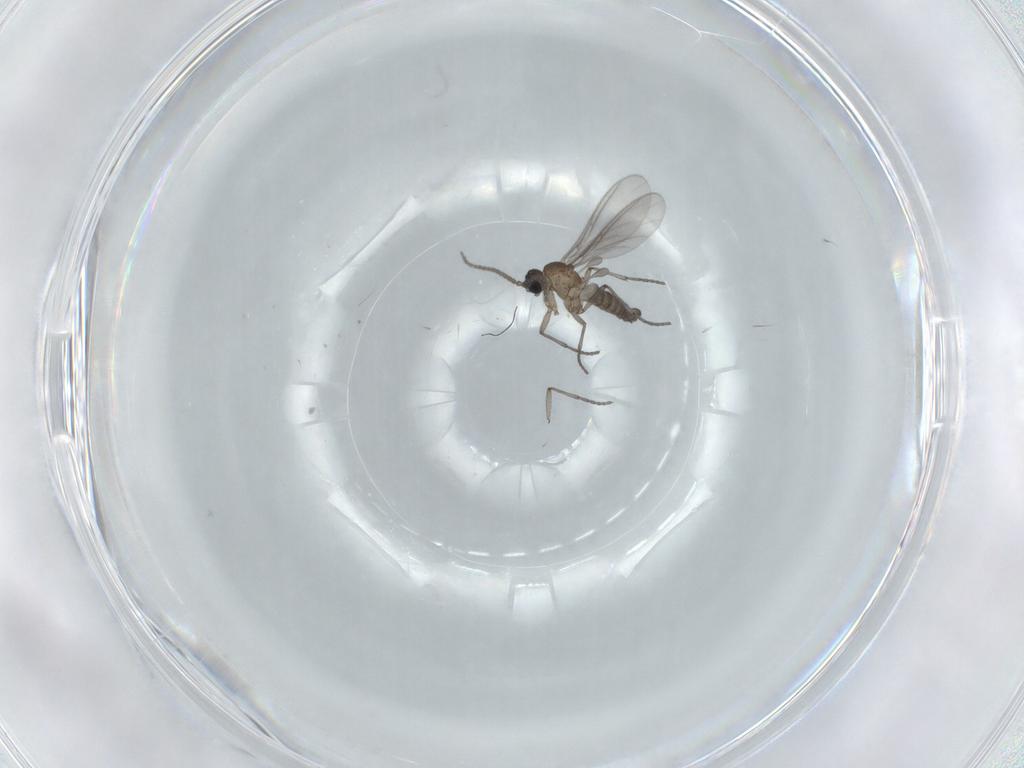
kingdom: Animalia
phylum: Arthropoda
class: Insecta
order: Diptera
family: Sciaridae
